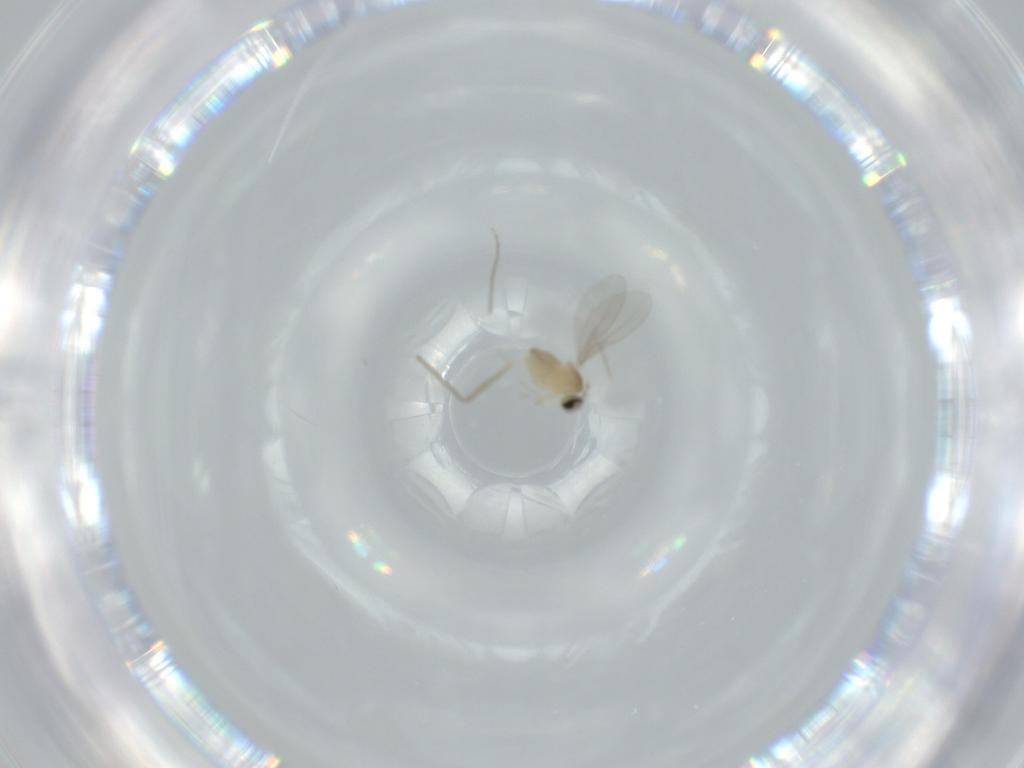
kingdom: Animalia
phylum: Arthropoda
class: Insecta
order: Diptera
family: Cecidomyiidae
